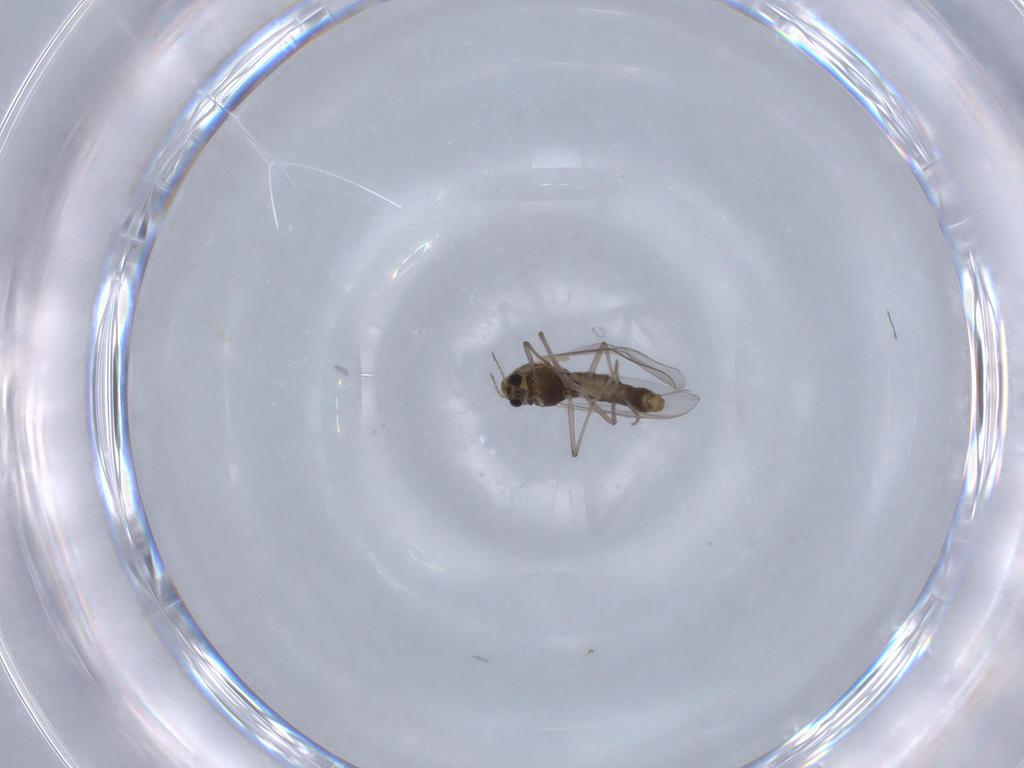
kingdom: Animalia
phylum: Arthropoda
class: Insecta
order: Diptera
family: Chironomidae
